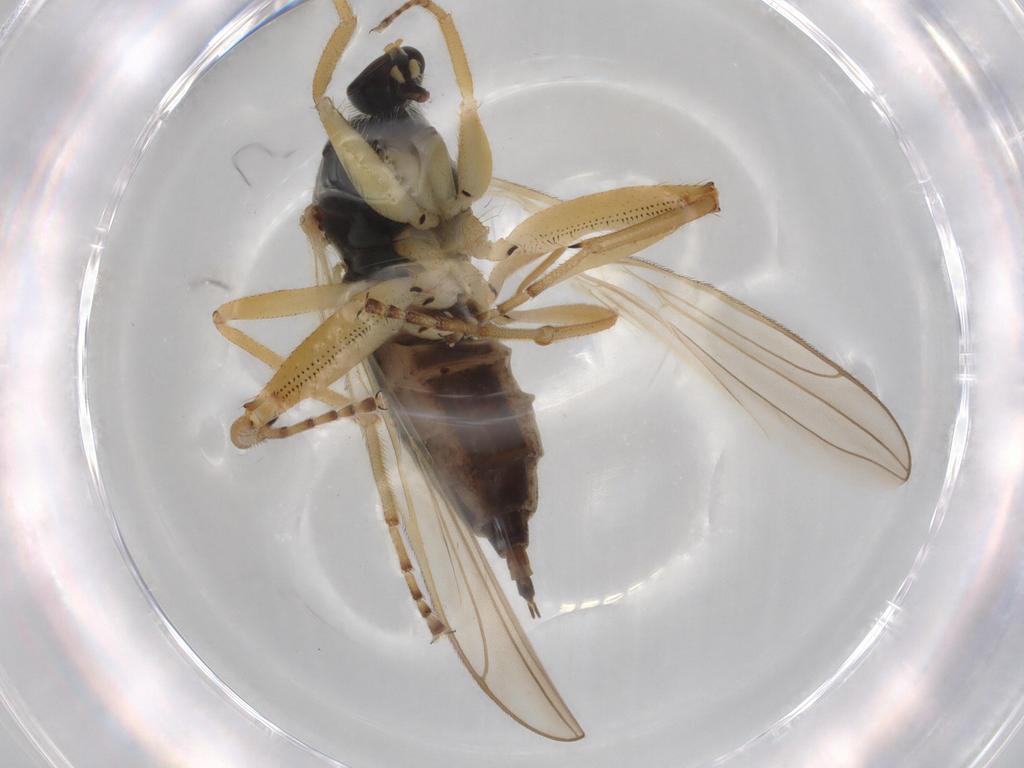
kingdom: Animalia
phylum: Arthropoda
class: Insecta
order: Diptera
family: Hybotidae
